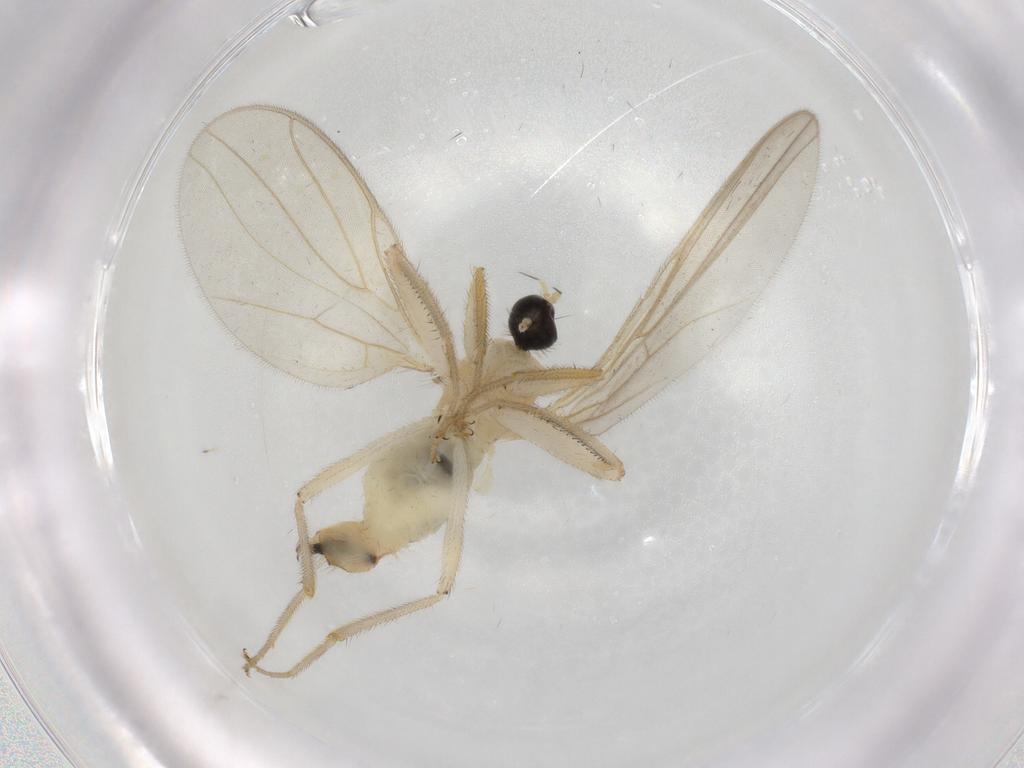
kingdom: Animalia
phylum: Arthropoda
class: Insecta
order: Diptera
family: Hybotidae
